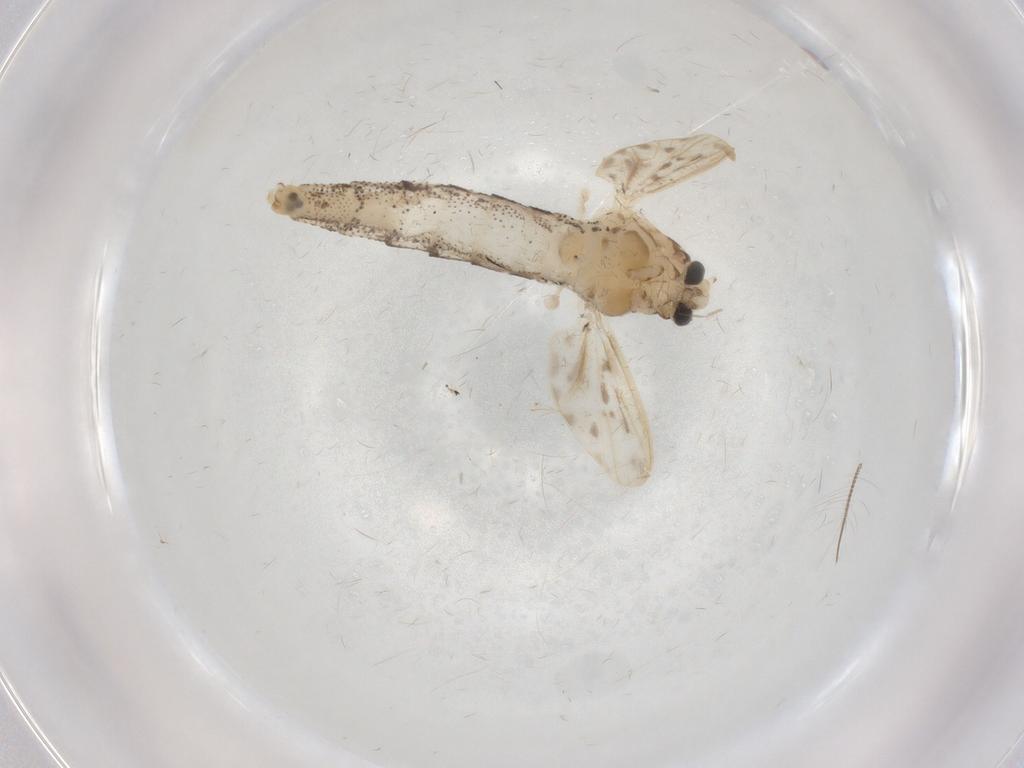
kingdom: Animalia
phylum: Arthropoda
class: Insecta
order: Diptera
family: Chaoboridae
